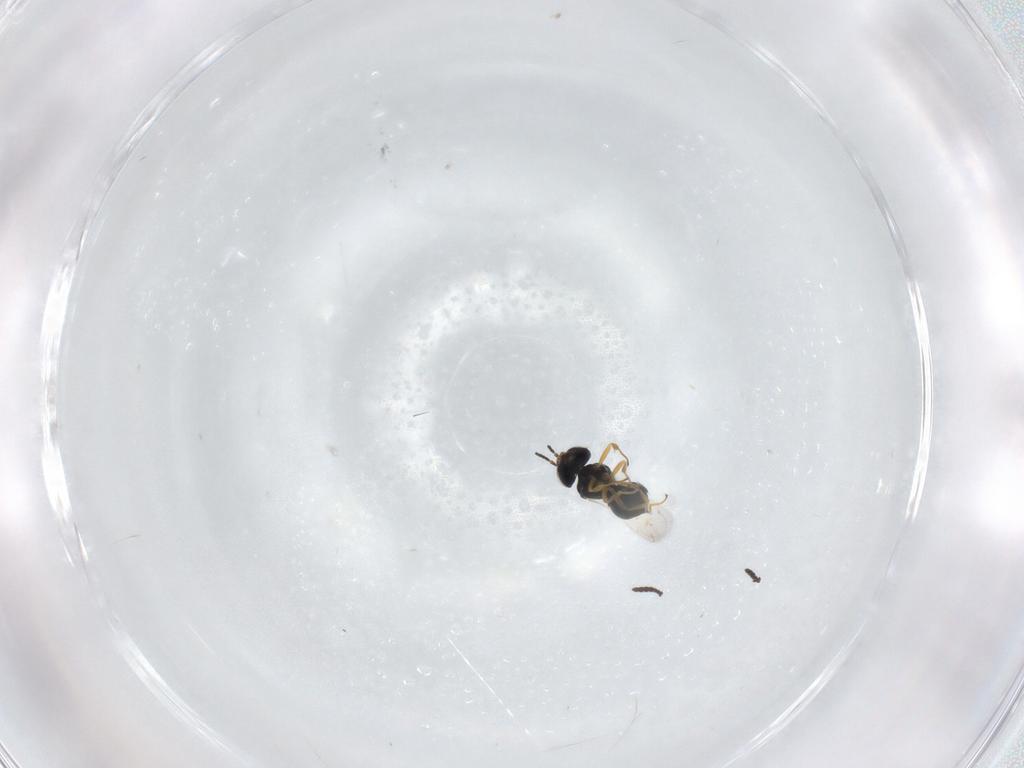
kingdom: Animalia
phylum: Arthropoda
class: Insecta
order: Hymenoptera
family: Scelionidae
